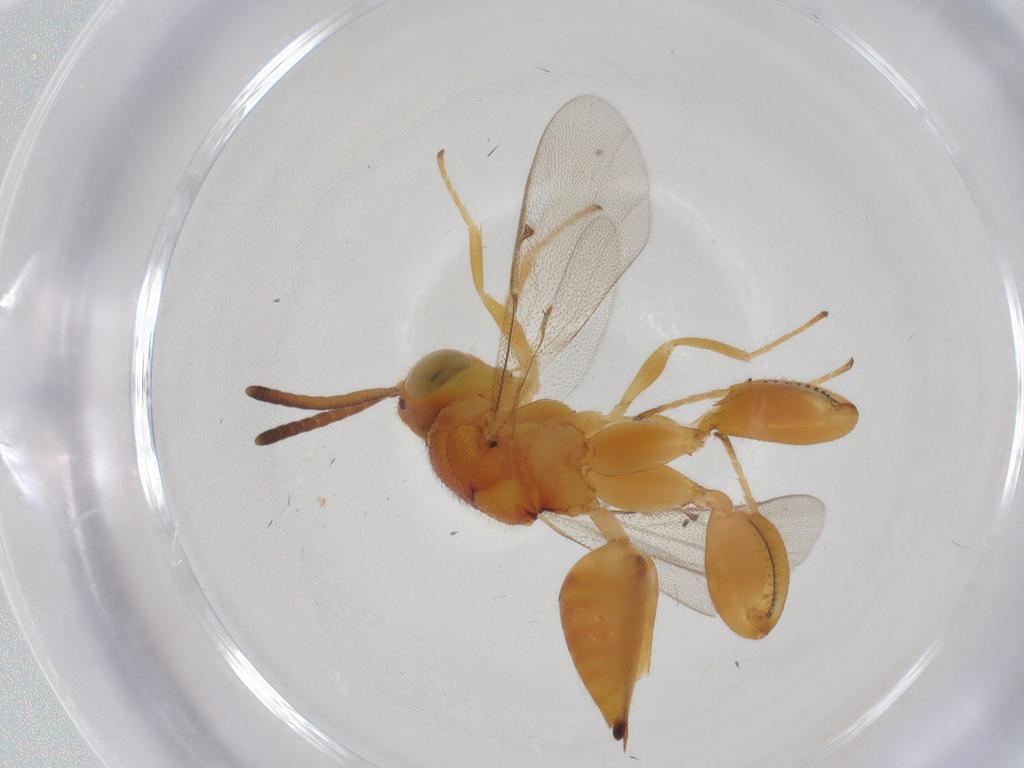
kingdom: Animalia
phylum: Arthropoda
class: Insecta
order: Hymenoptera
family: Chalcididae
